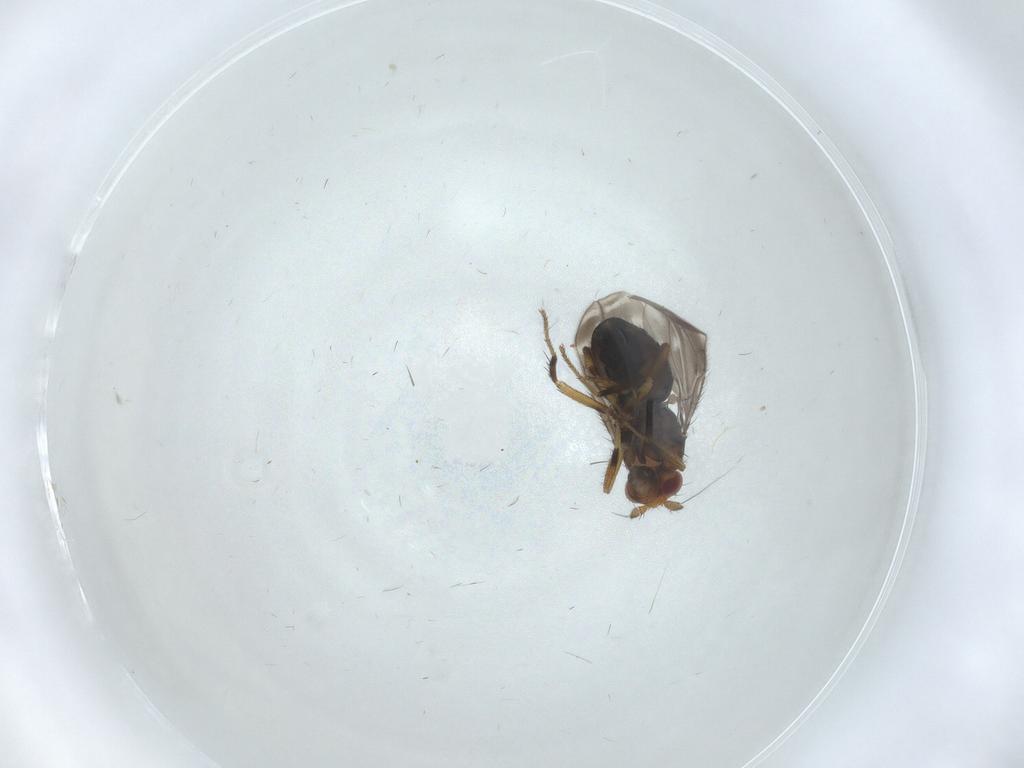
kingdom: Animalia
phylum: Arthropoda
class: Insecta
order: Diptera
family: Sphaeroceridae
